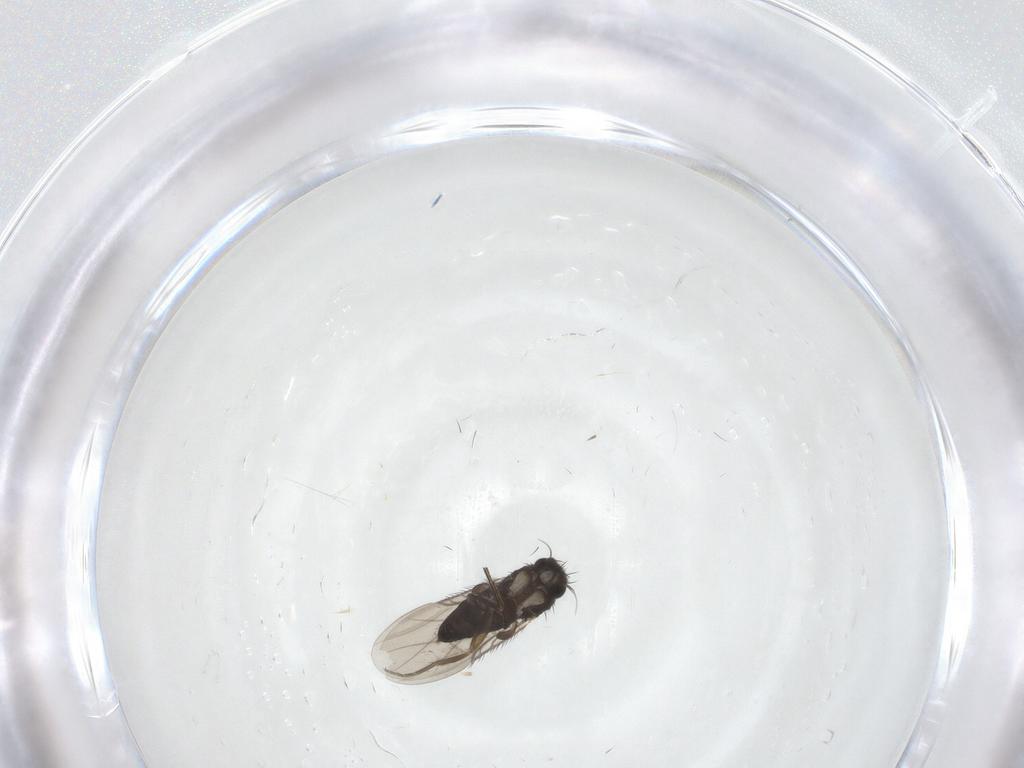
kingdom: Animalia
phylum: Arthropoda
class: Insecta
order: Diptera
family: Phoridae
